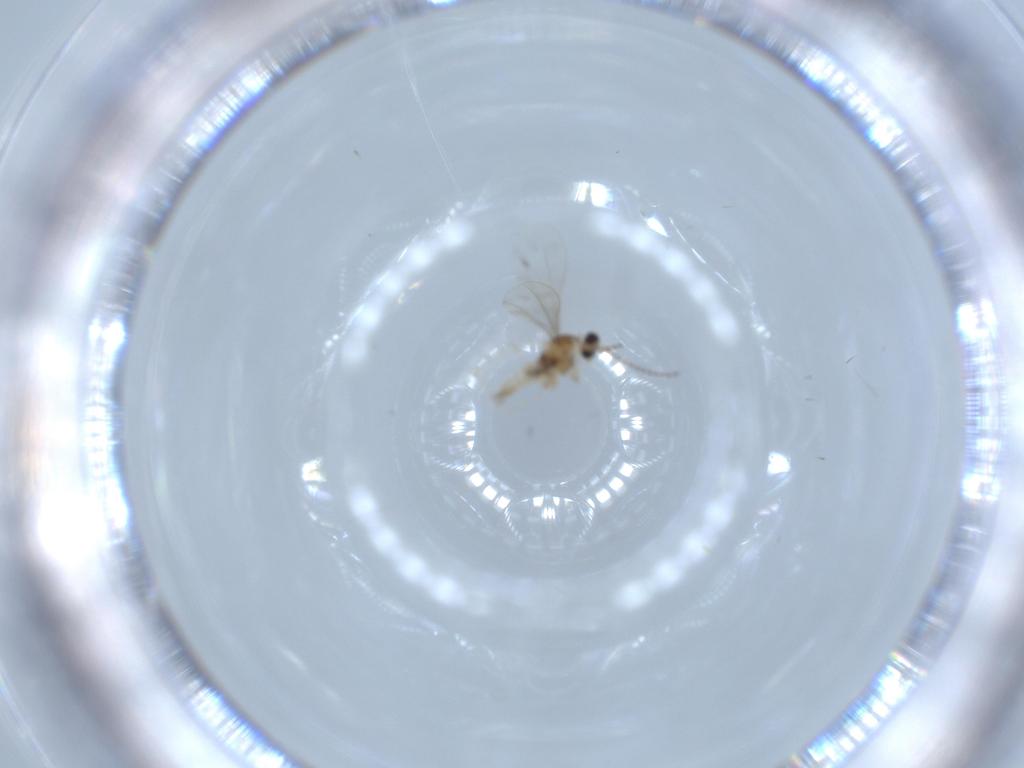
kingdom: Animalia
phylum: Arthropoda
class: Insecta
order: Diptera
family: Cecidomyiidae
